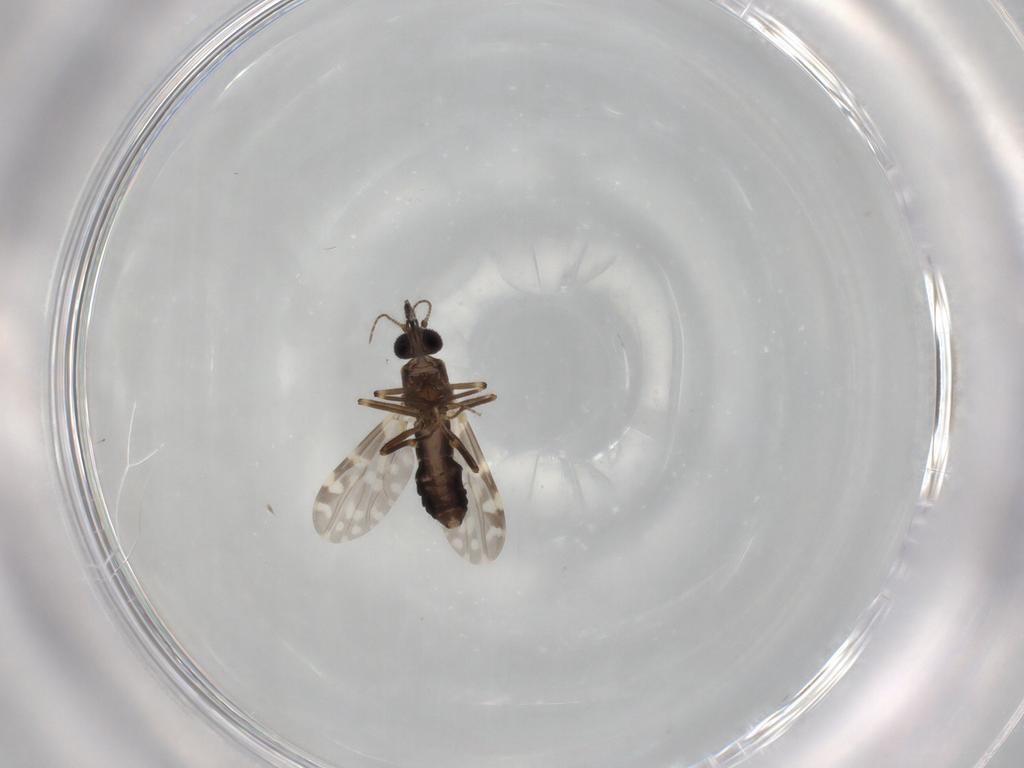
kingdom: Animalia
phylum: Arthropoda
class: Insecta
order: Diptera
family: Ceratopogonidae
